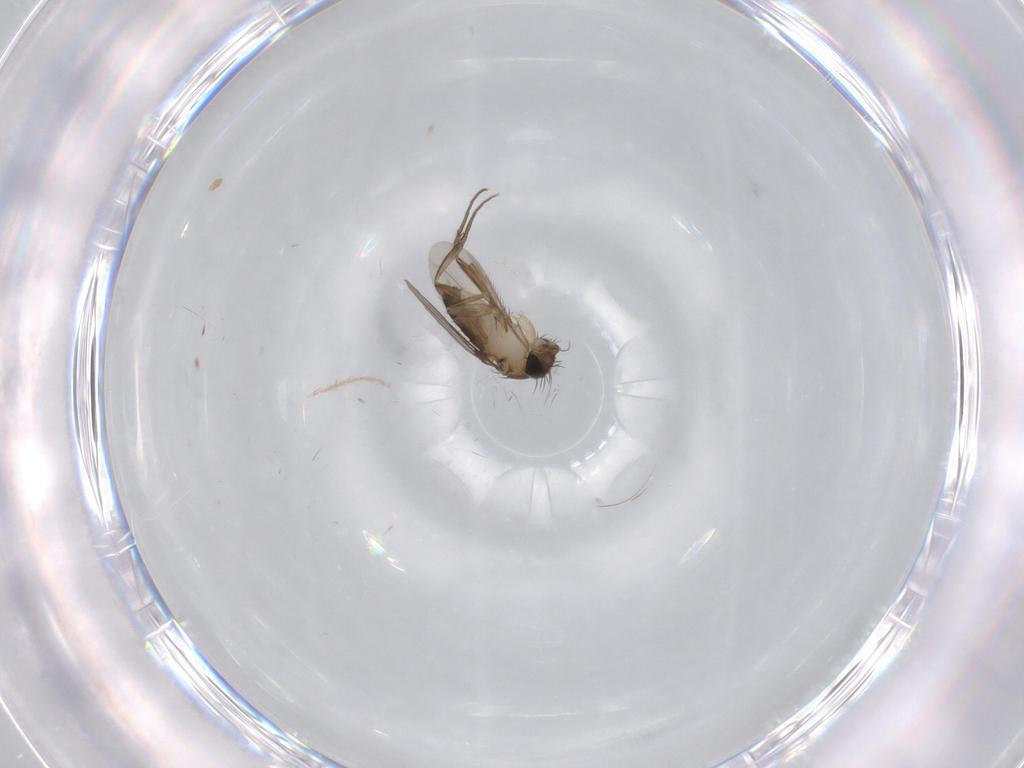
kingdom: Animalia
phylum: Arthropoda
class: Insecta
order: Diptera
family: Phoridae
